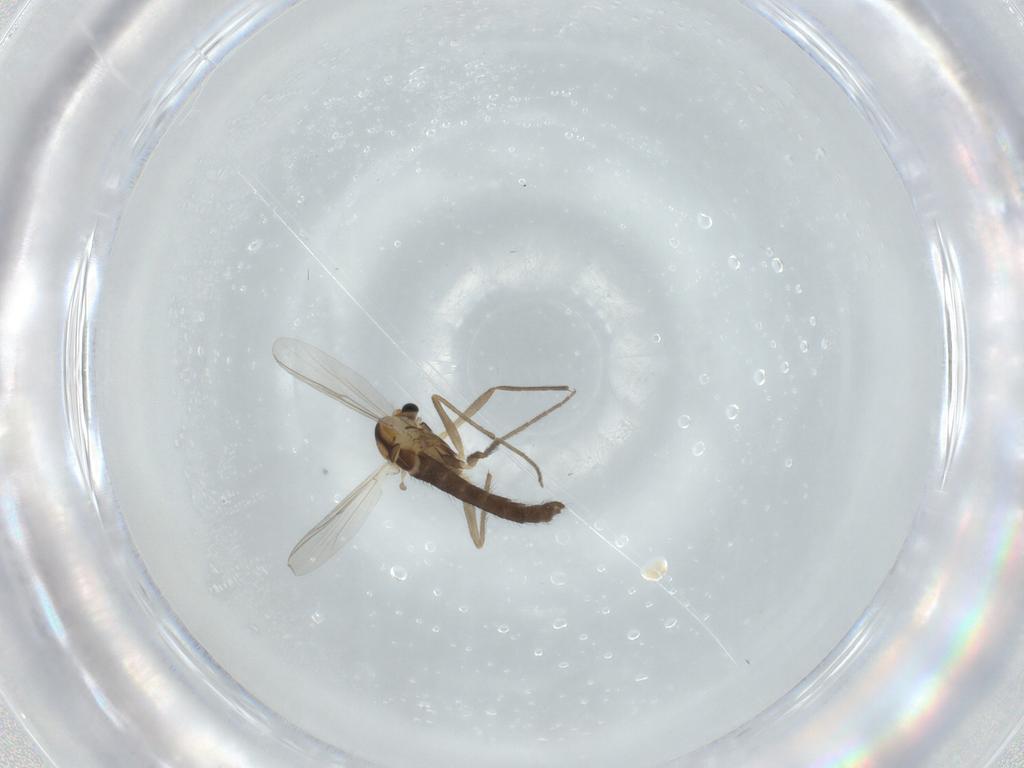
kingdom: Animalia
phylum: Arthropoda
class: Insecta
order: Diptera
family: Chironomidae
